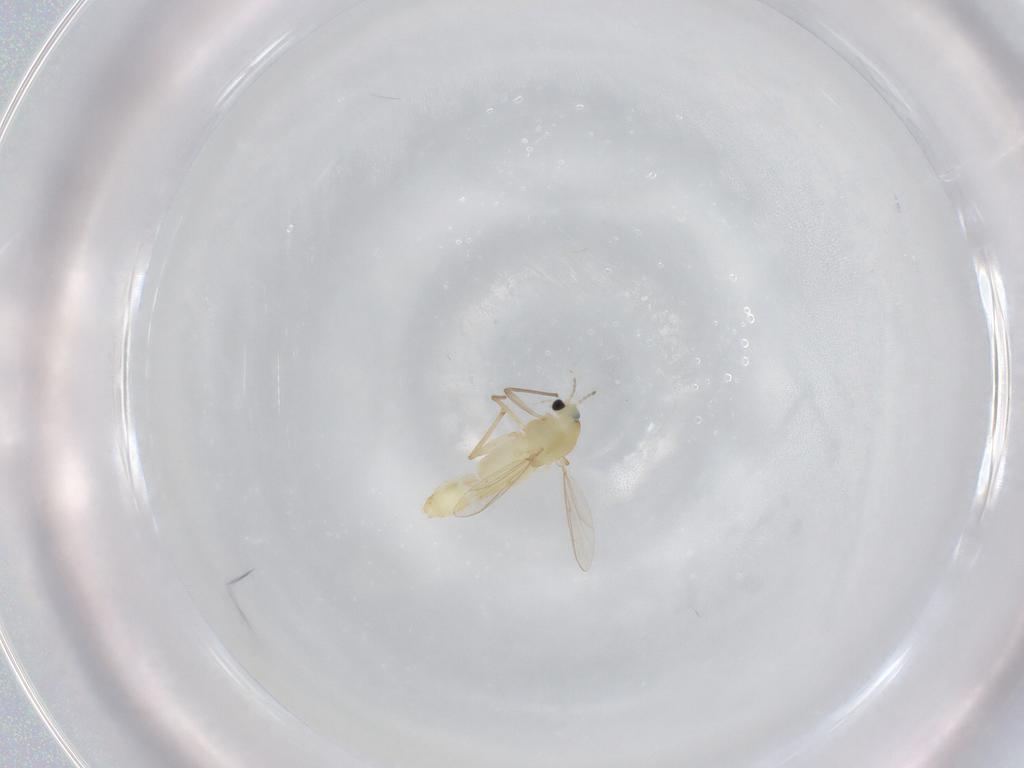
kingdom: Animalia
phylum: Arthropoda
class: Insecta
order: Diptera
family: Chironomidae
